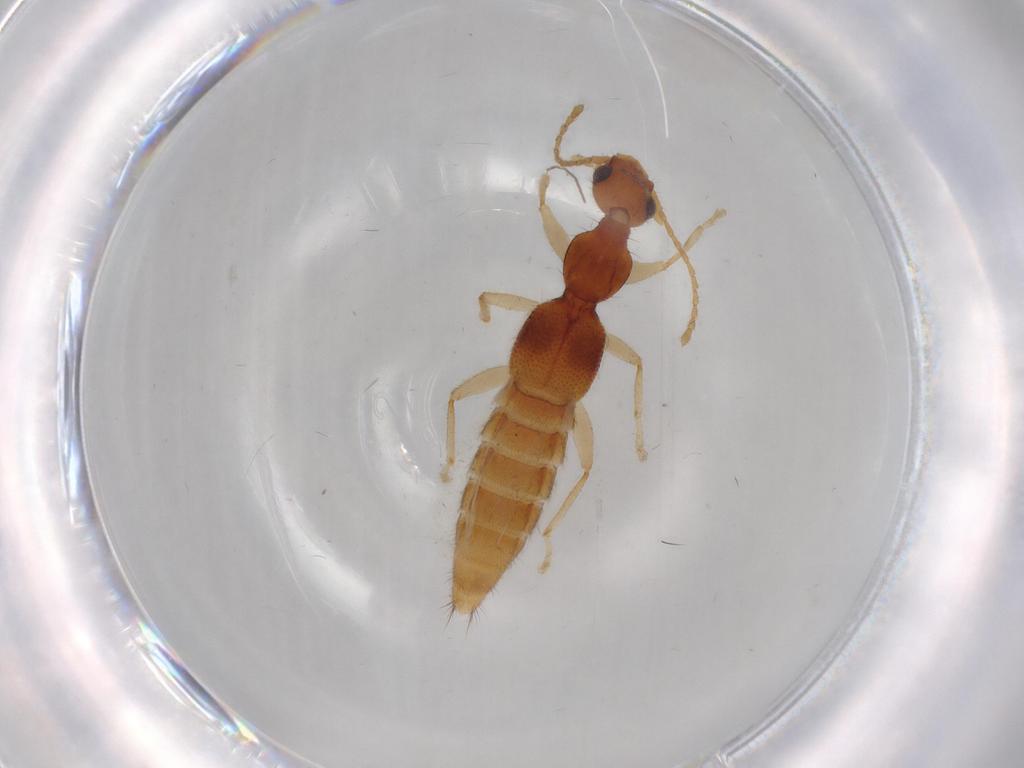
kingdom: Animalia
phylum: Arthropoda
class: Insecta
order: Coleoptera
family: Staphylinidae
